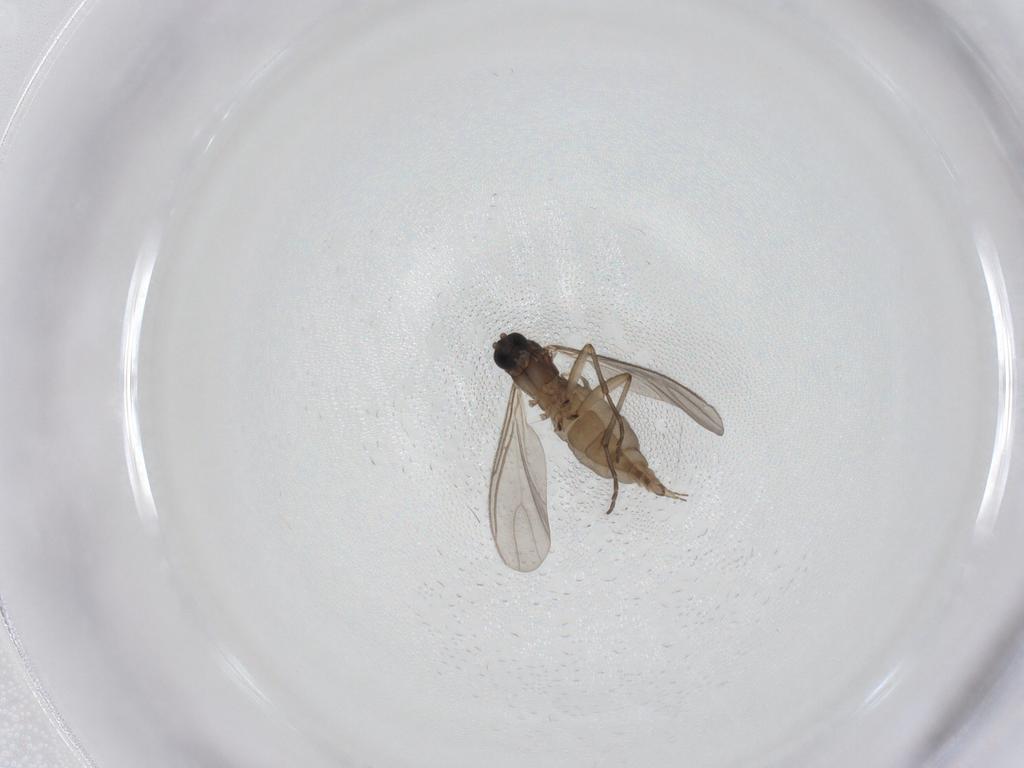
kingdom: Animalia
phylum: Arthropoda
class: Insecta
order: Diptera
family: Sciaridae
